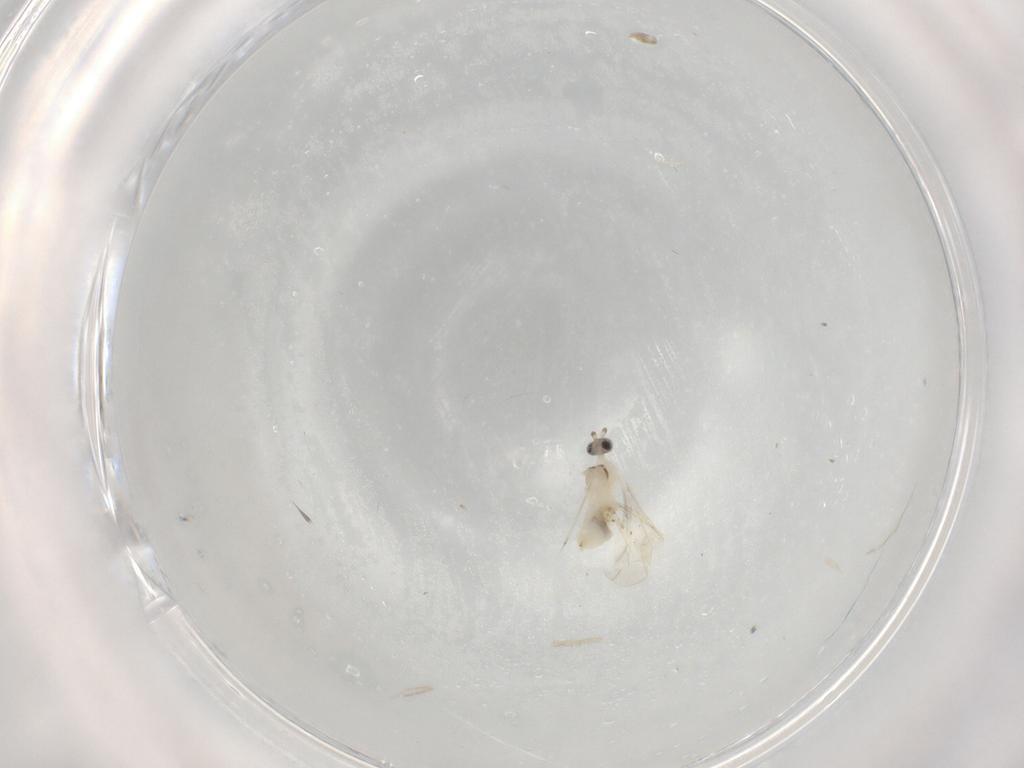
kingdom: Animalia
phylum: Arthropoda
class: Insecta
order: Diptera
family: Cecidomyiidae
